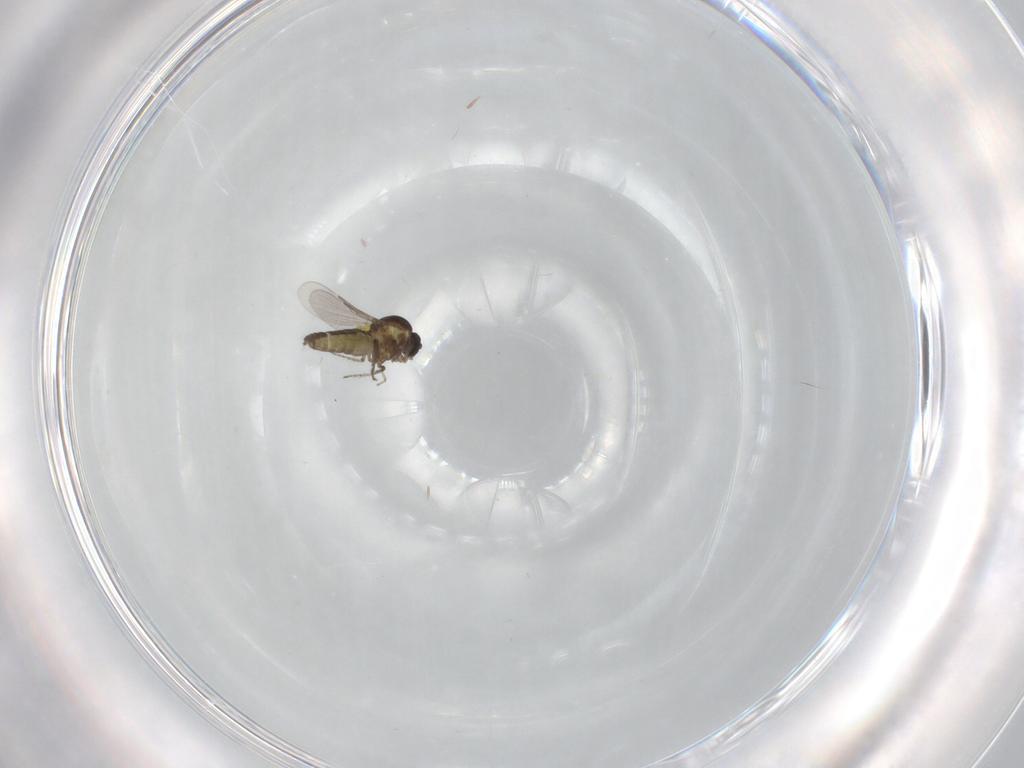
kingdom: Animalia
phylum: Arthropoda
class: Insecta
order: Diptera
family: Ceratopogonidae
